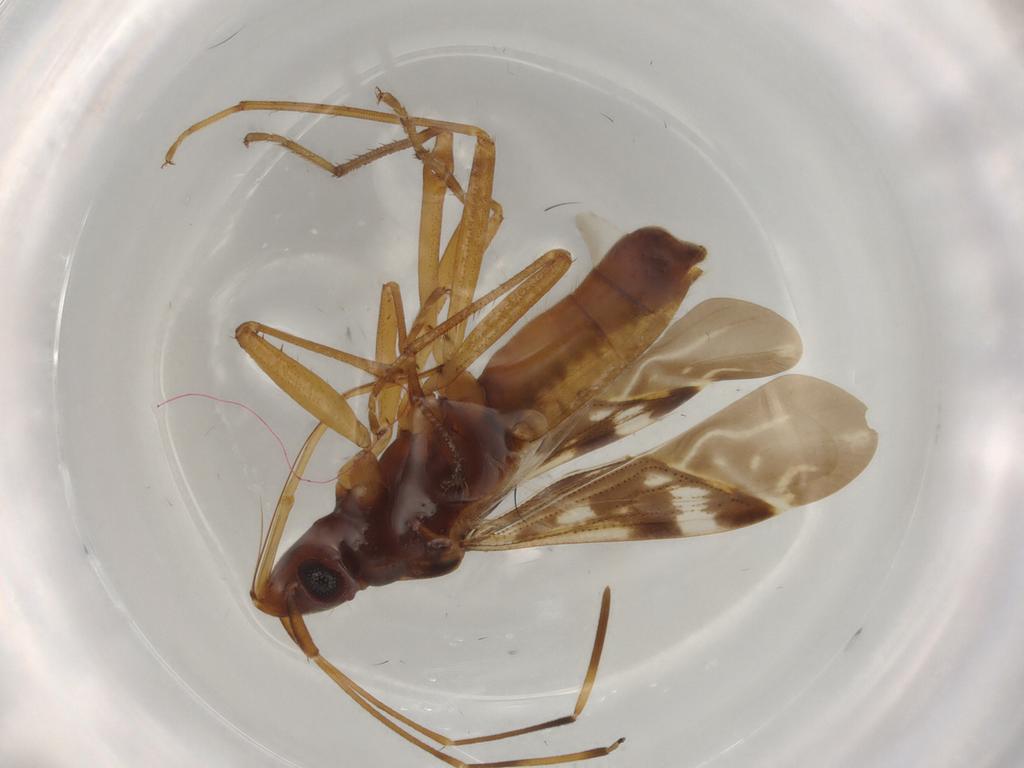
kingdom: Animalia
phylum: Arthropoda
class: Insecta
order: Hemiptera
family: Rhyparochromidae
